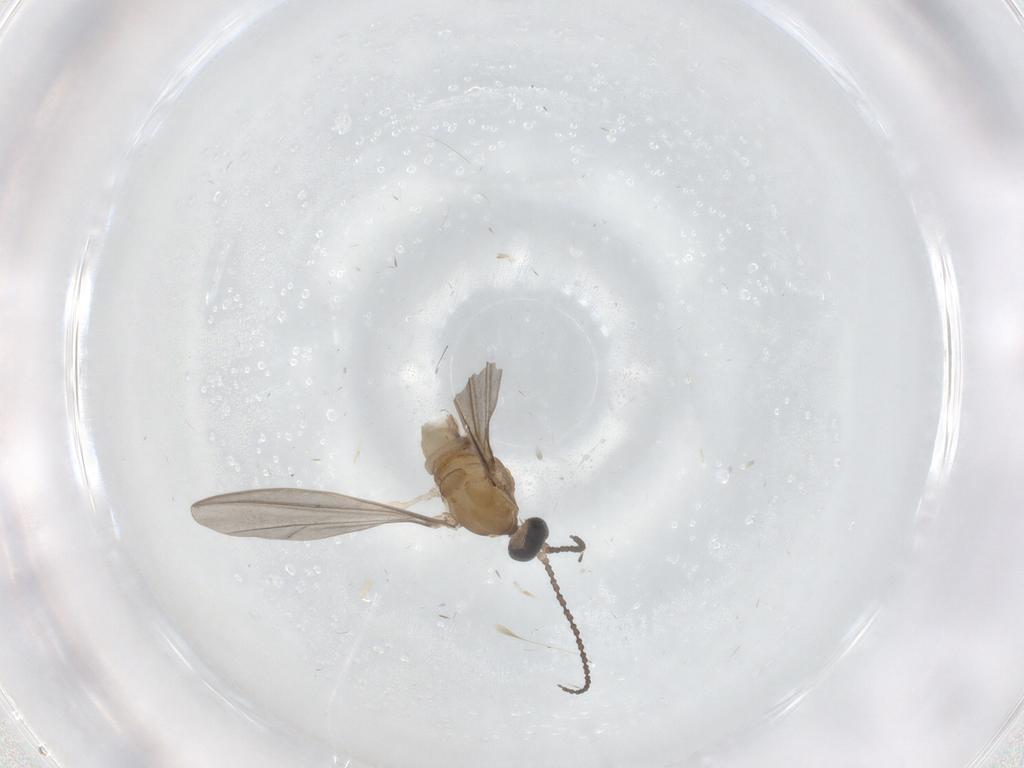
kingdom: Animalia
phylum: Arthropoda
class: Insecta
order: Diptera
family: Cecidomyiidae
